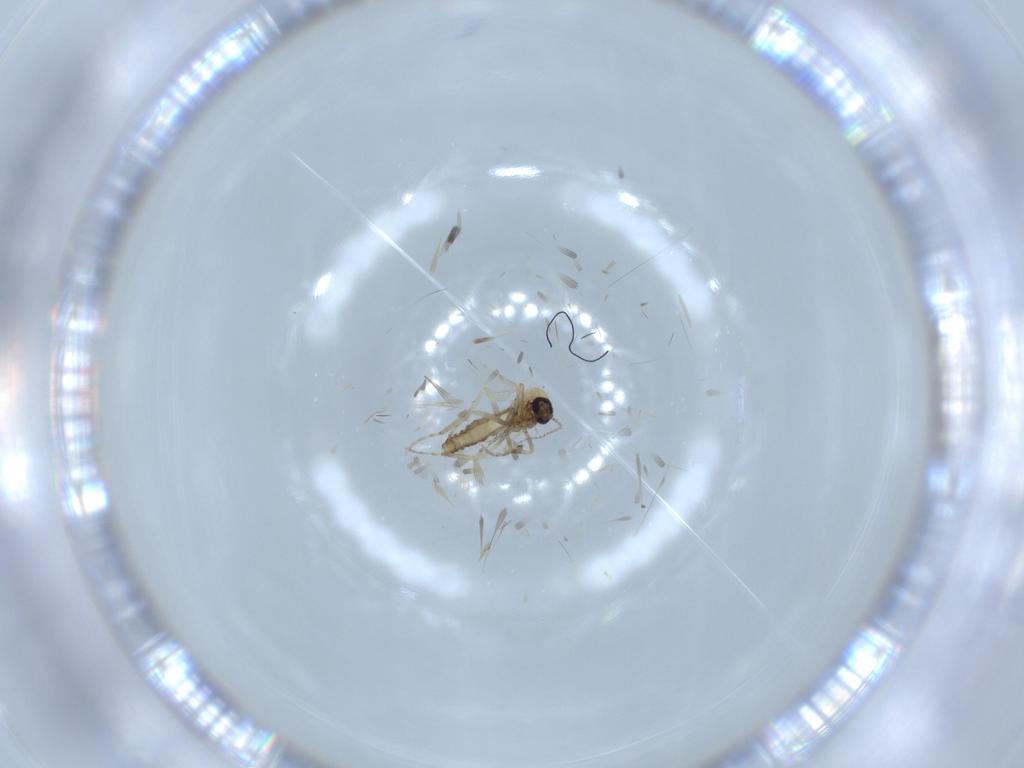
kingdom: Animalia
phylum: Arthropoda
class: Insecta
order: Diptera
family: Ceratopogonidae
